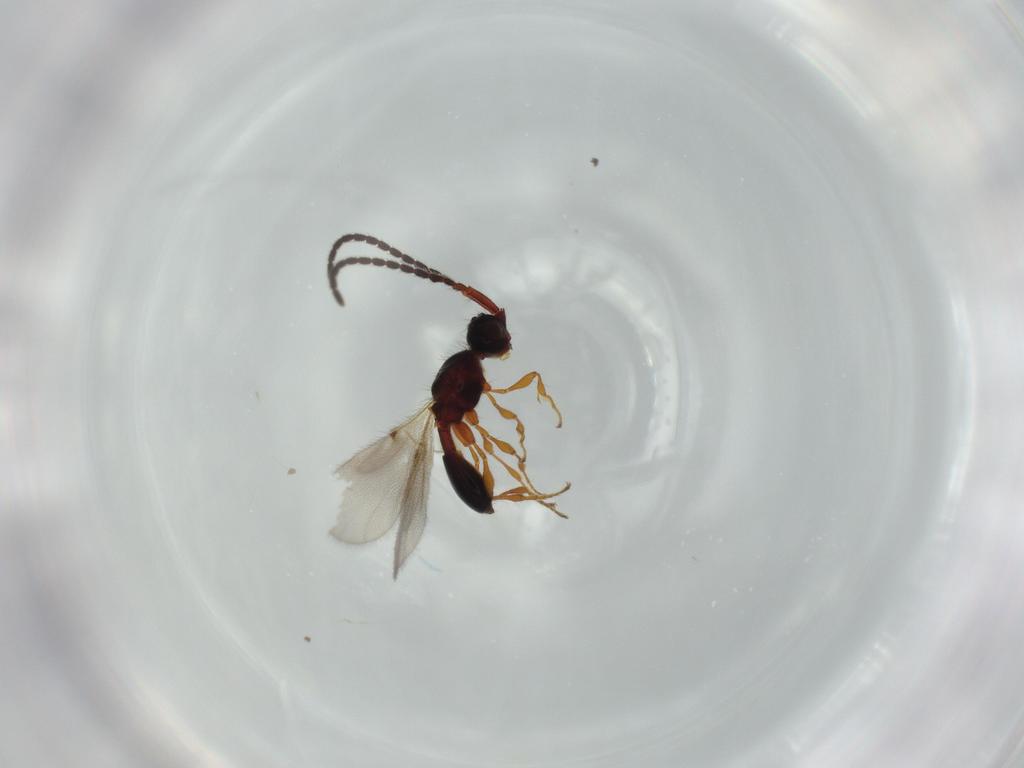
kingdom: Animalia
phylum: Arthropoda
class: Insecta
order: Hymenoptera
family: Diapriidae
